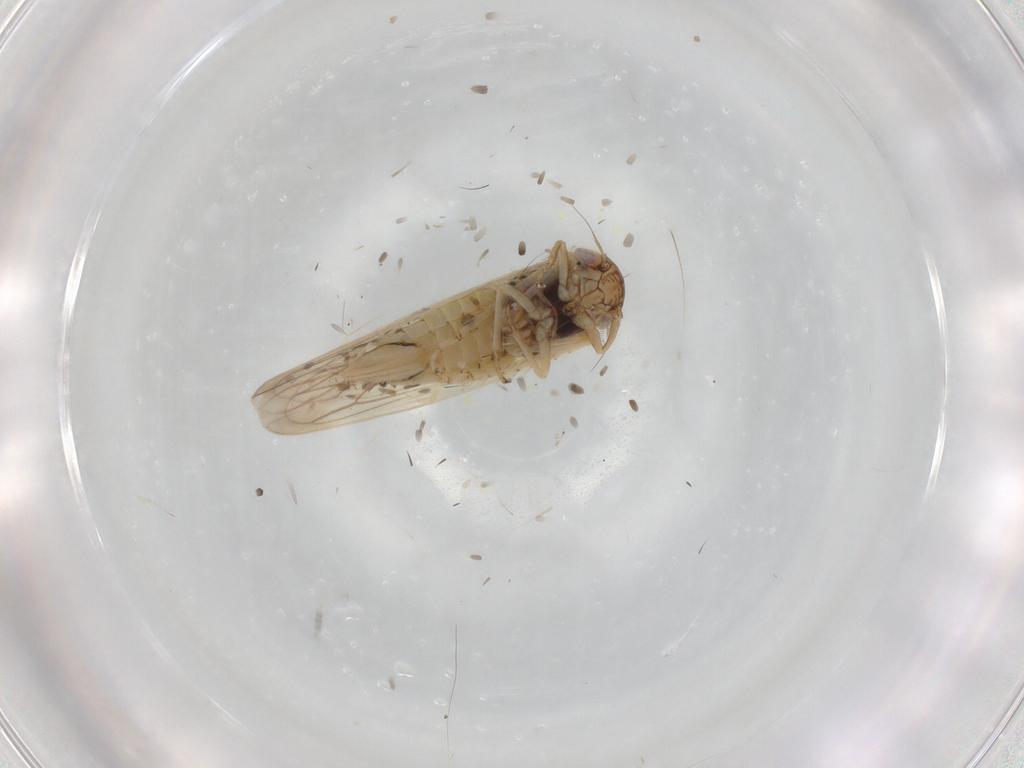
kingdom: Animalia
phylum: Arthropoda
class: Insecta
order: Hemiptera
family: Cicadellidae
